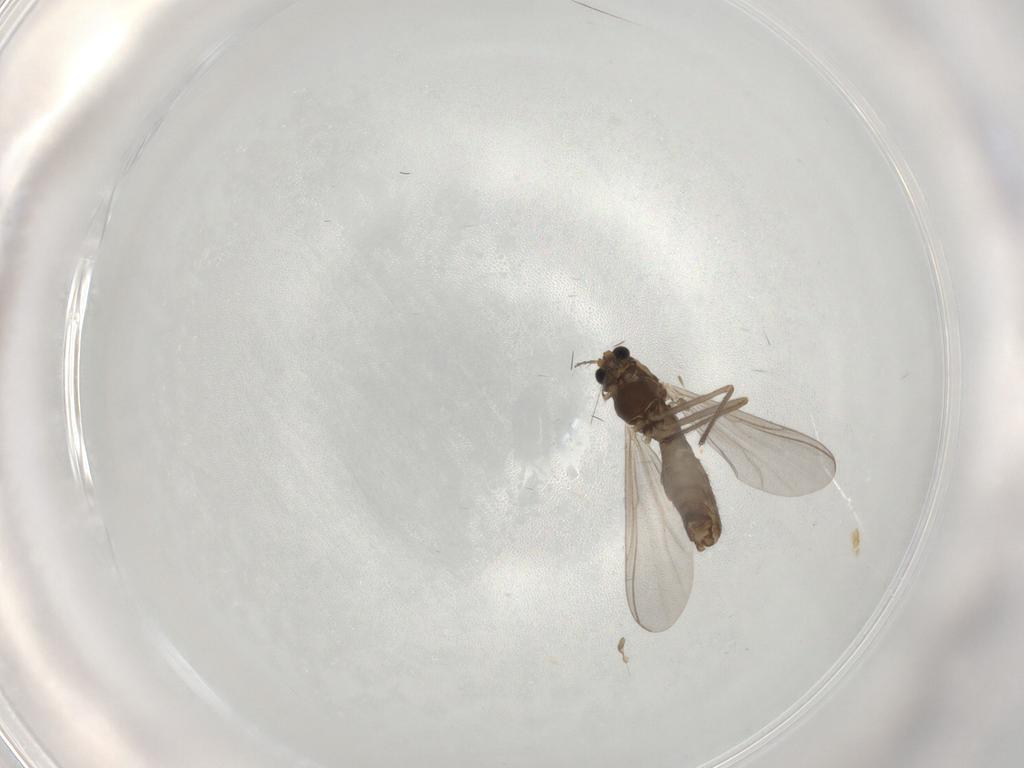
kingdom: Animalia
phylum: Arthropoda
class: Insecta
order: Diptera
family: Chironomidae
